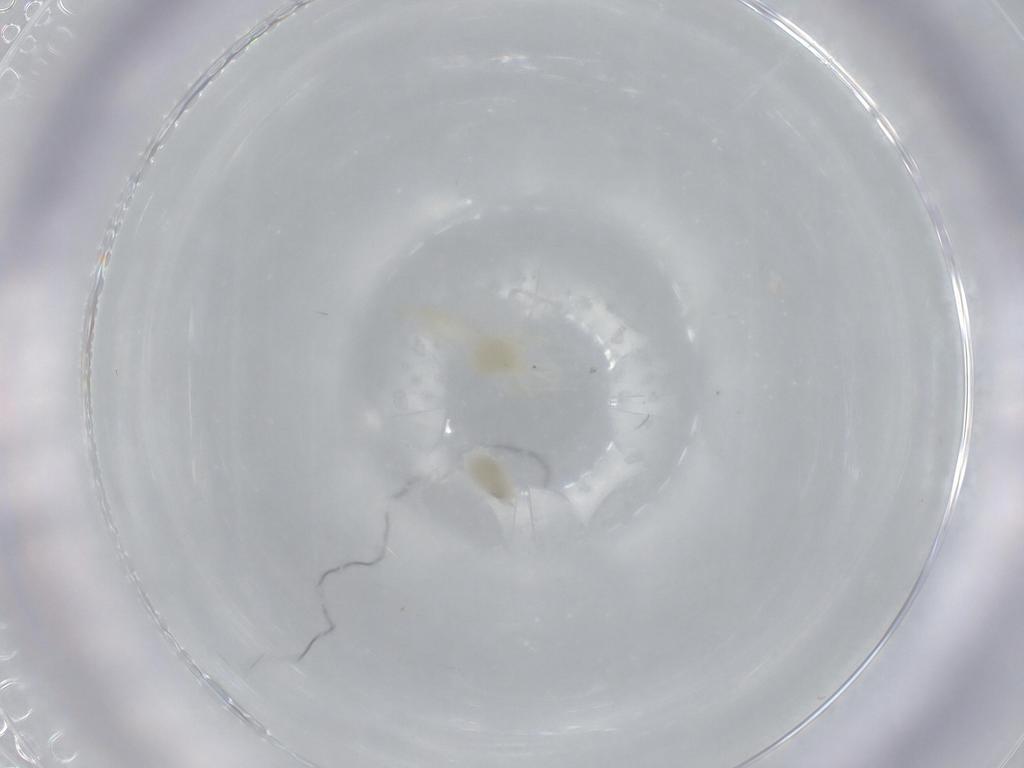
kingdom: Animalia
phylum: Arthropoda
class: Insecta
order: Hemiptera
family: Aleyrodidae
